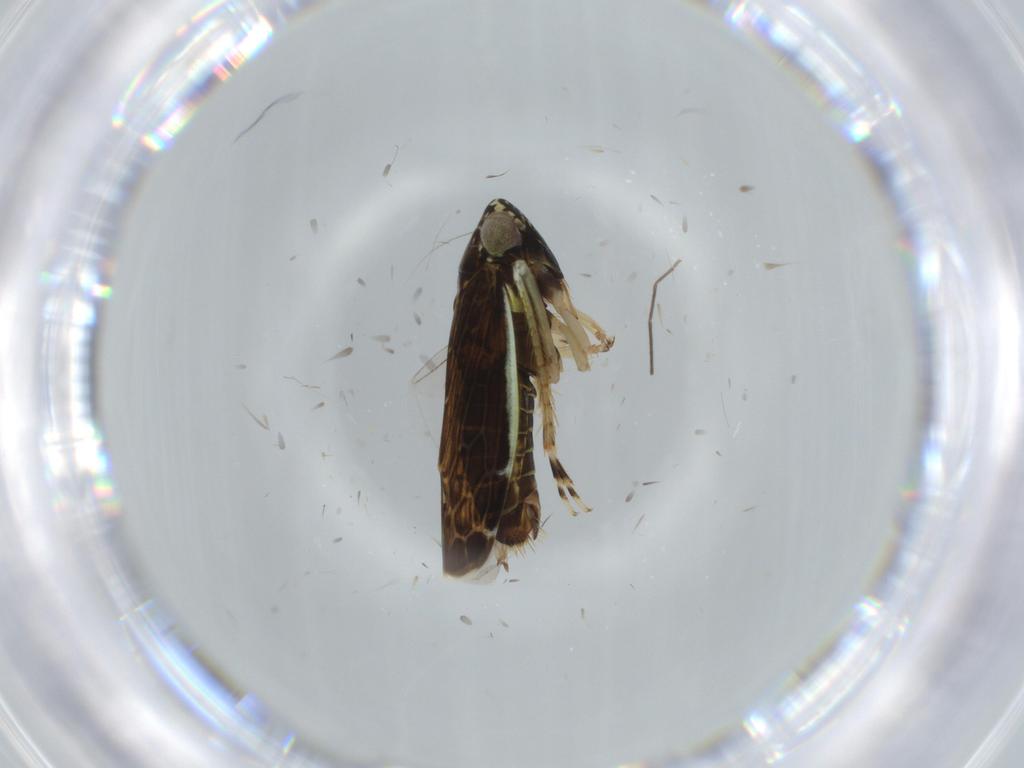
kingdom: Animalia
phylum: Arthropoda
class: Insecta
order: Hemiptera
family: Cicadellidae
